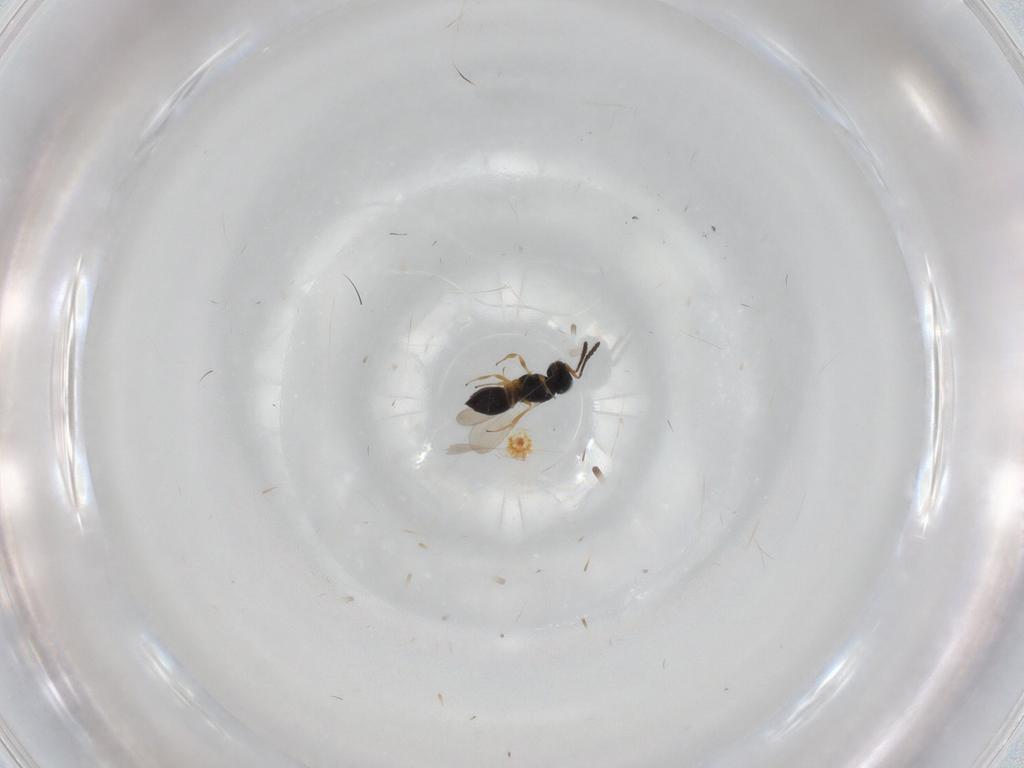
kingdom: Animalia
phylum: Arthropoda
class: Insecta
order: Hymenoptera
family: Scelionidae
